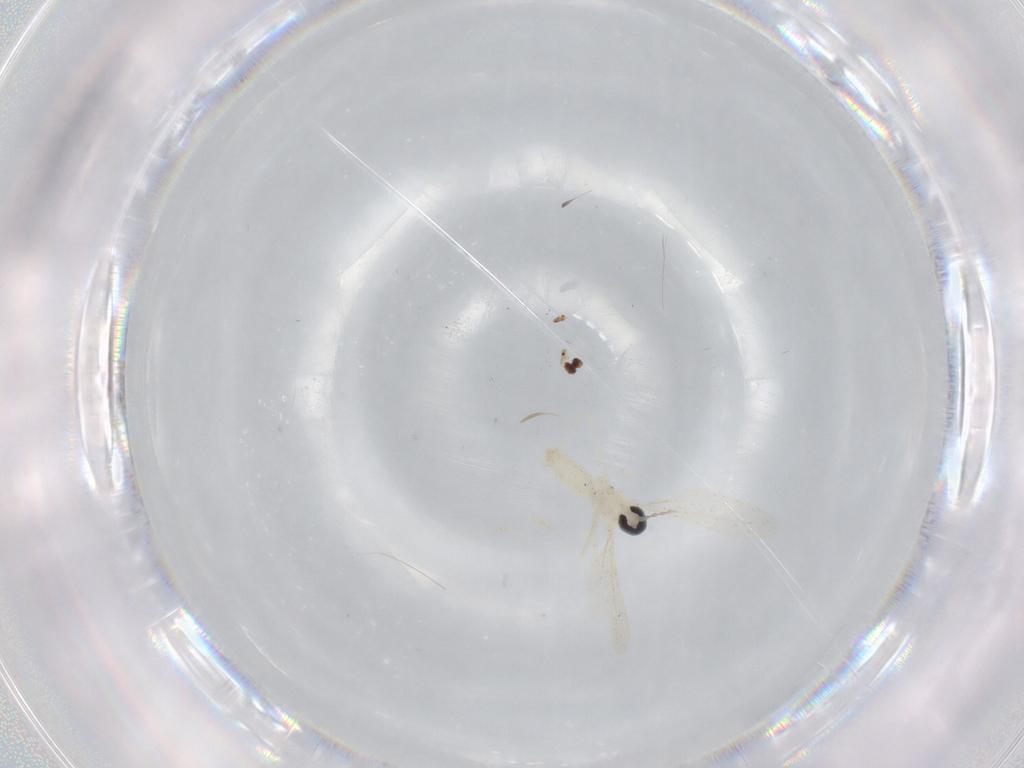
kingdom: Animalia
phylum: Arthropoda
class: Insecta
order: Diptera
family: Cecidomyiidae
